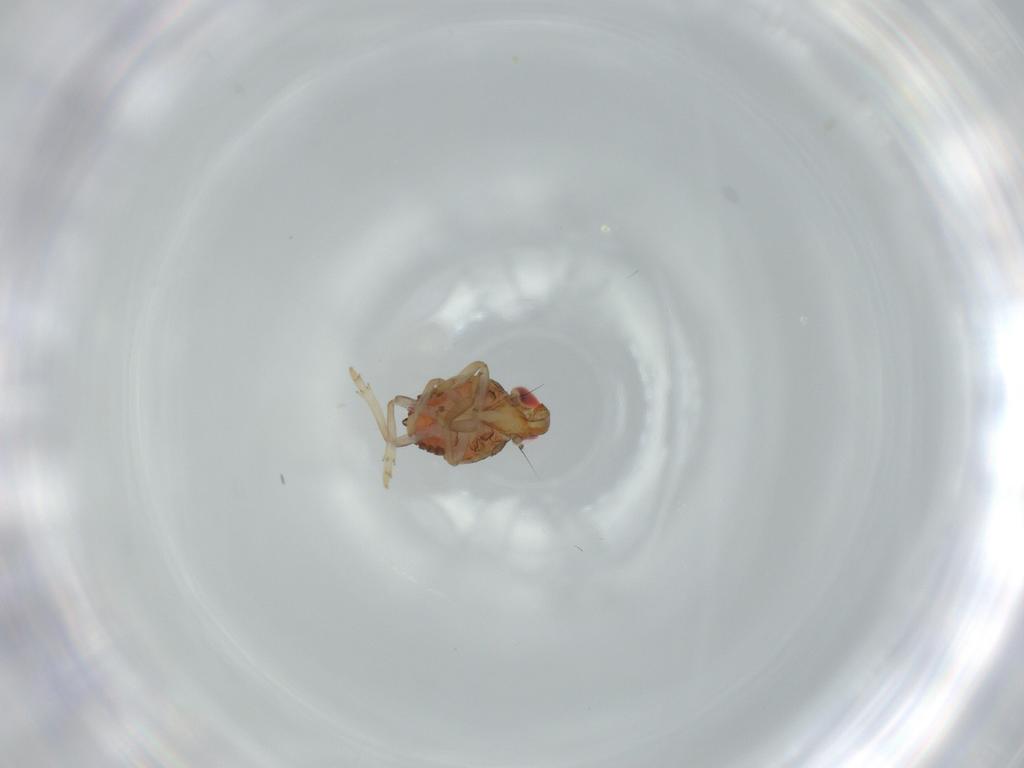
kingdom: Animalia
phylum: Arthropoda
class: Insecta
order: Hemiptera
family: Issidae
